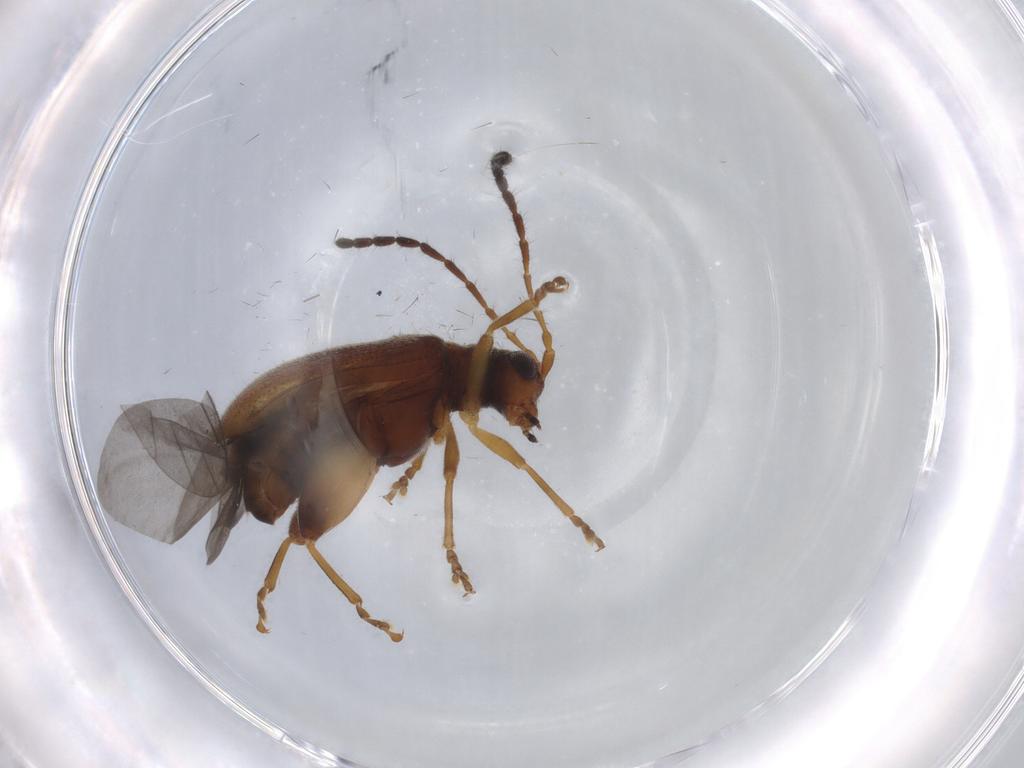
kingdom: Animalia
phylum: Arthropoda
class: Insecta
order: Coleoptera
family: Chrysomelidae
